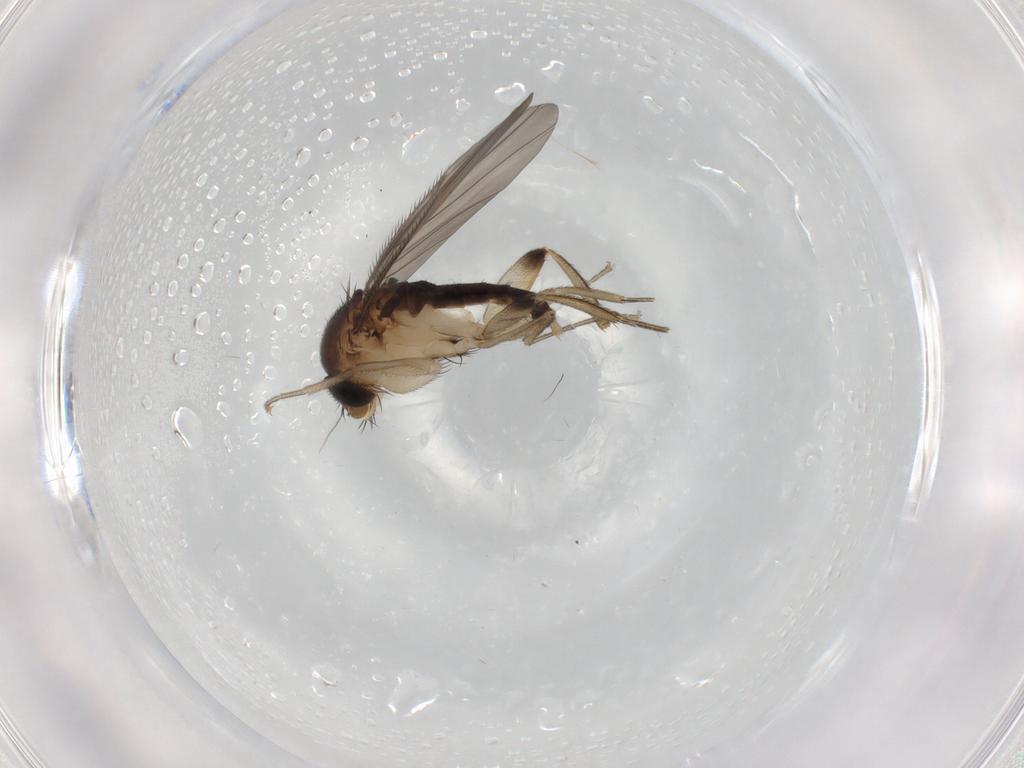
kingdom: Animalia
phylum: Arthropoda
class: Insecta
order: Diptera
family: Phoridae
